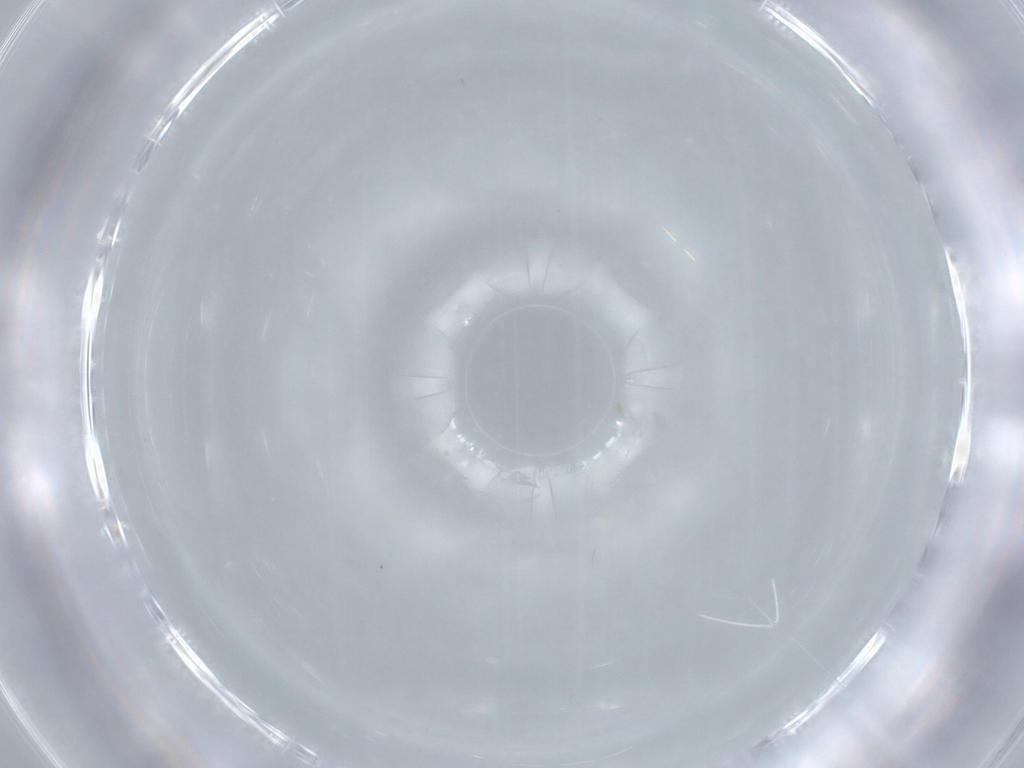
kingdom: Animalia
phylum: Arthropoda
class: Insecta
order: Diptera
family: Cecidomyiidae
